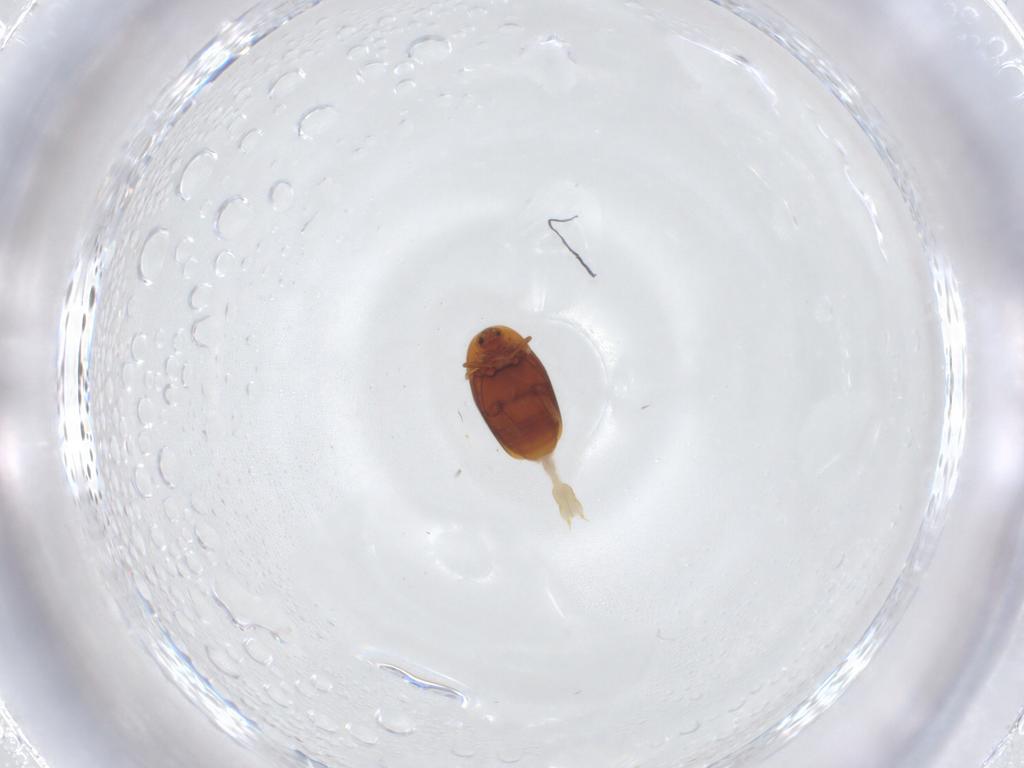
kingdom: Animalia
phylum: Arthropoda
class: Insecta
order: Coleoptera
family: Corylophidae
